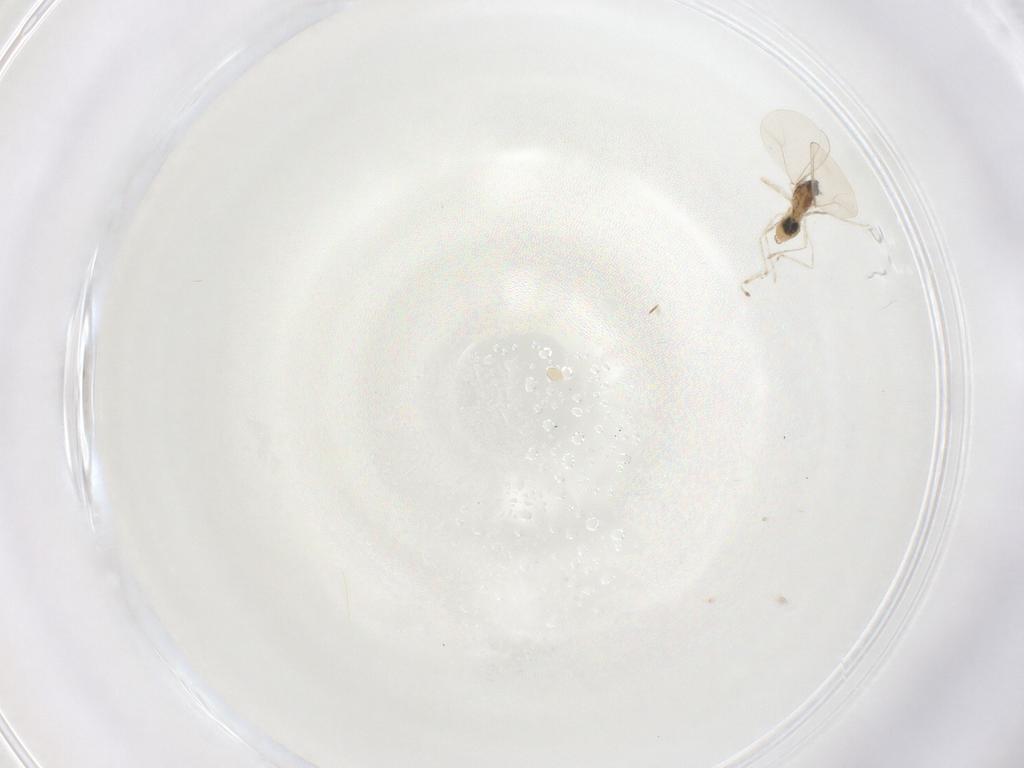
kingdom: Animalia
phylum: Arthropoda
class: Insecta
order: Diptera
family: Cecidomyiidae
